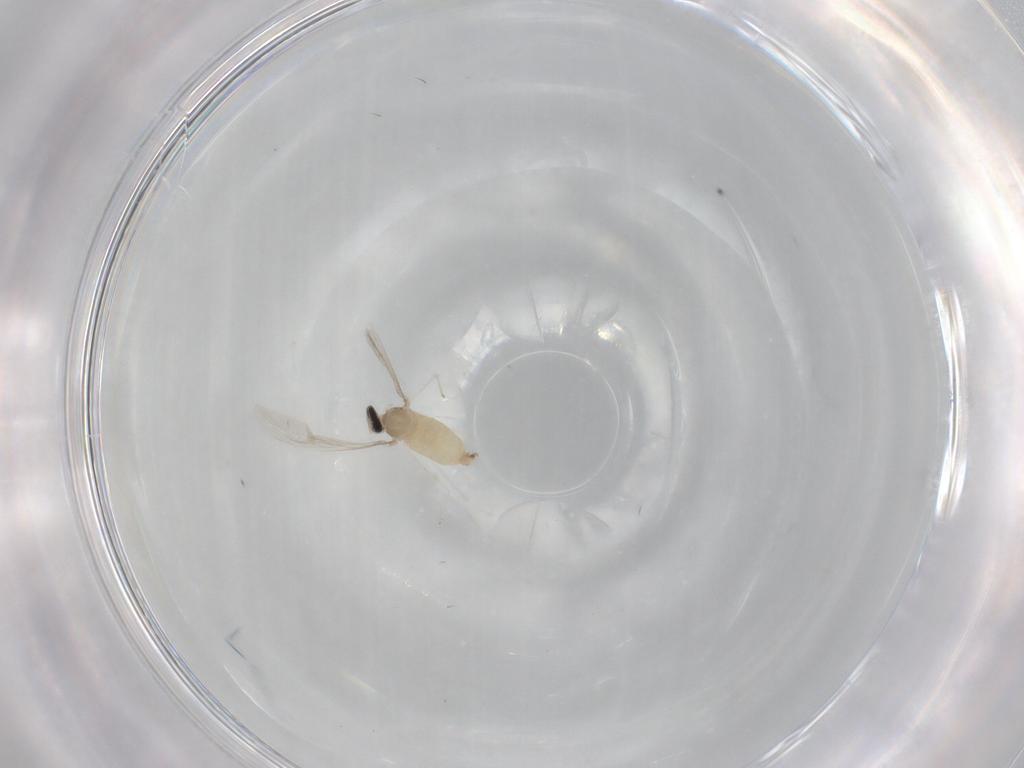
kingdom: Animalia
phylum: Arthropoda
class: Insecta
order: Diptera
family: Cecidomyiidae
